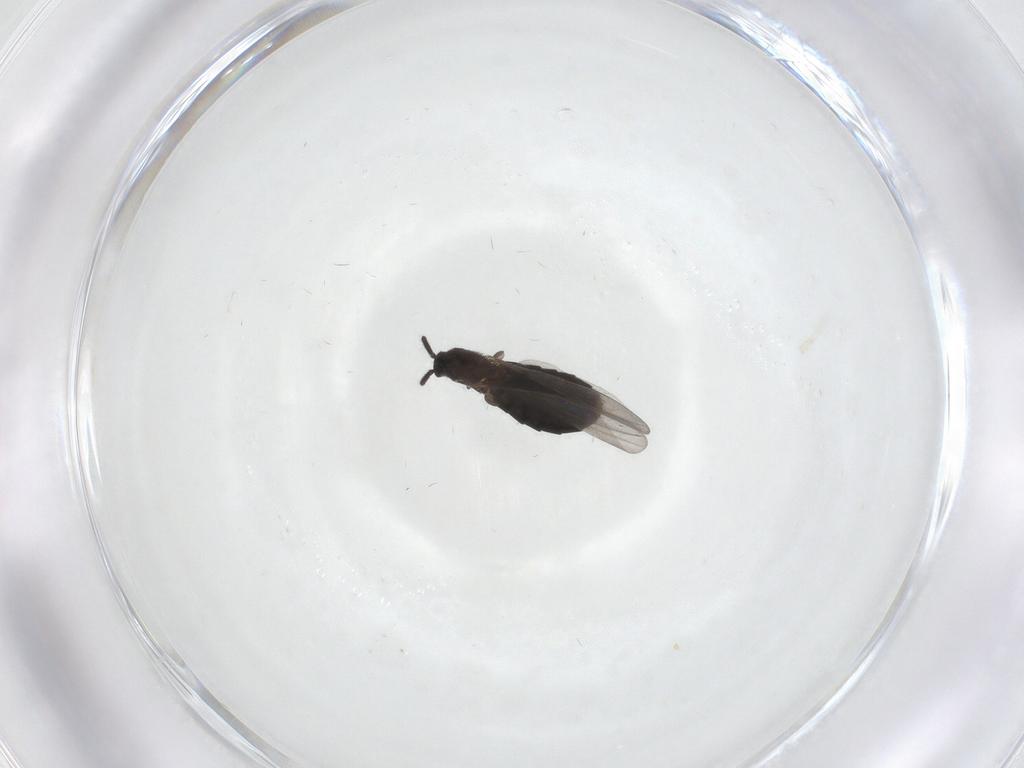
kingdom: Animalia
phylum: Arthropoda
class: Insecta
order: Diptera
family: Scatopsidae
